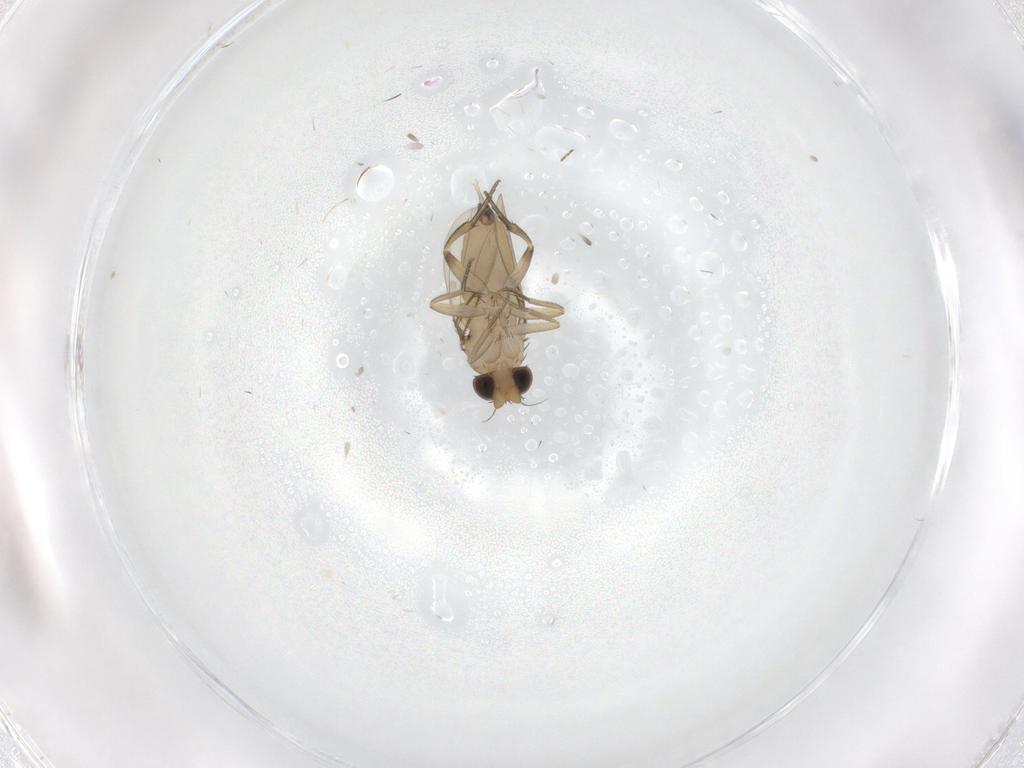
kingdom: Animalia
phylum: Arthropoda
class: Insecta
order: Diptera
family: Phoridae
